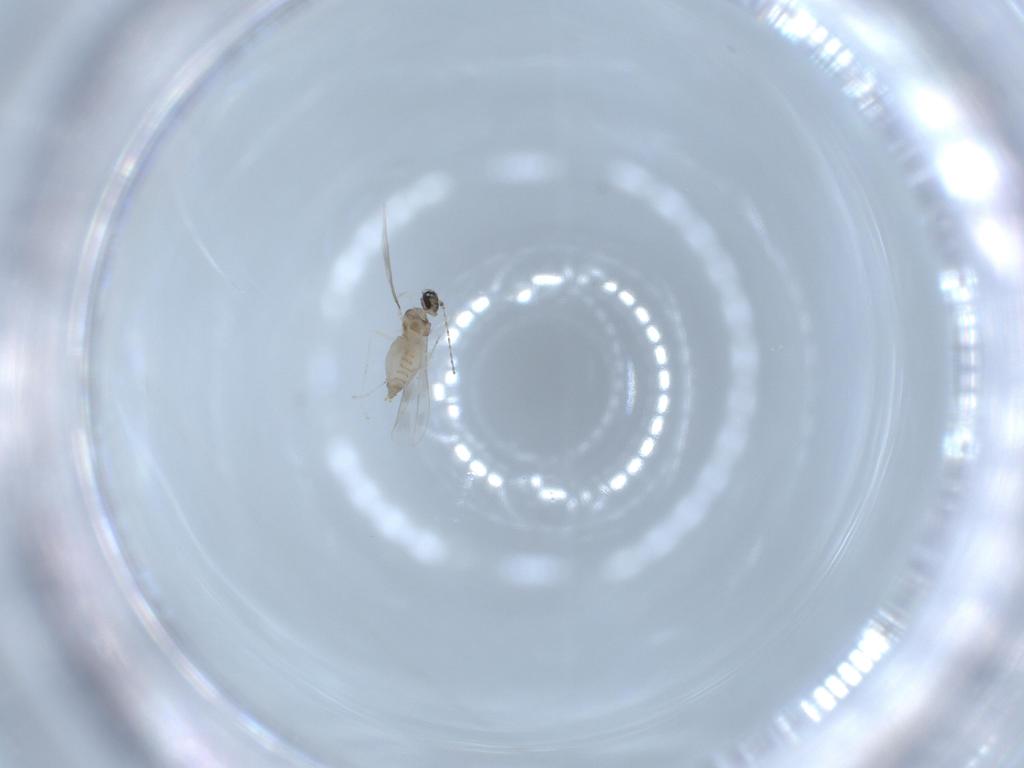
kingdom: Animalia
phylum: Arthropoda
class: Insecta
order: Diptera
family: Cecidomyiidae
